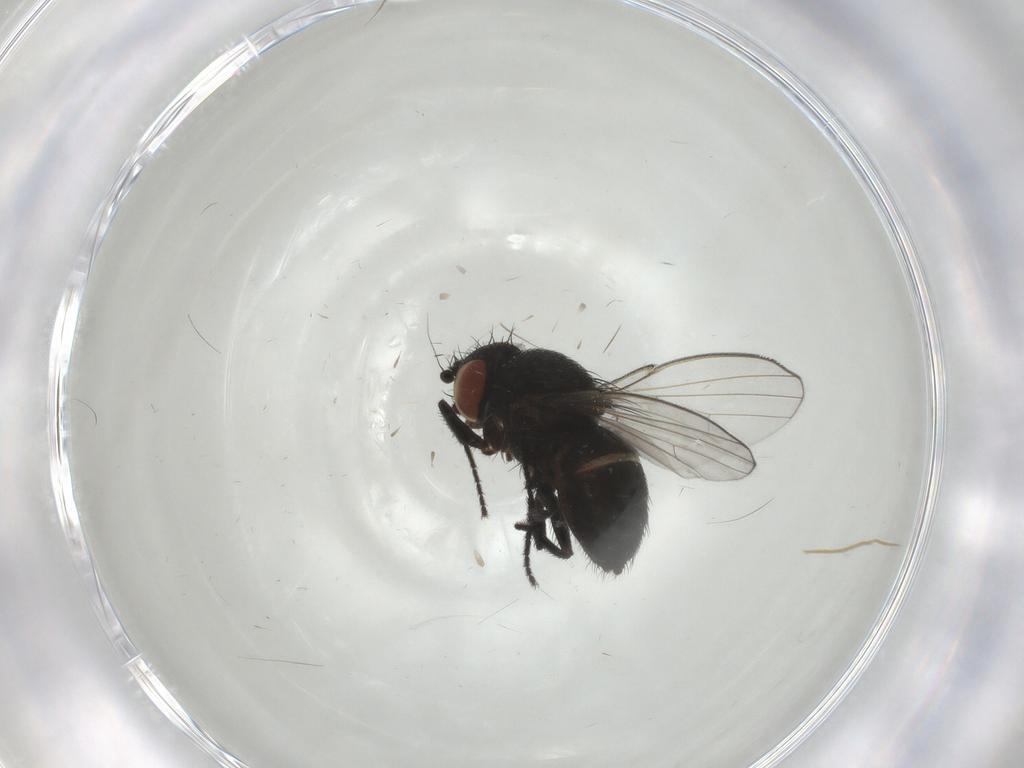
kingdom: Animalia
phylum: Arthropoda
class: Insecta
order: Diptera
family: Milichiidae
